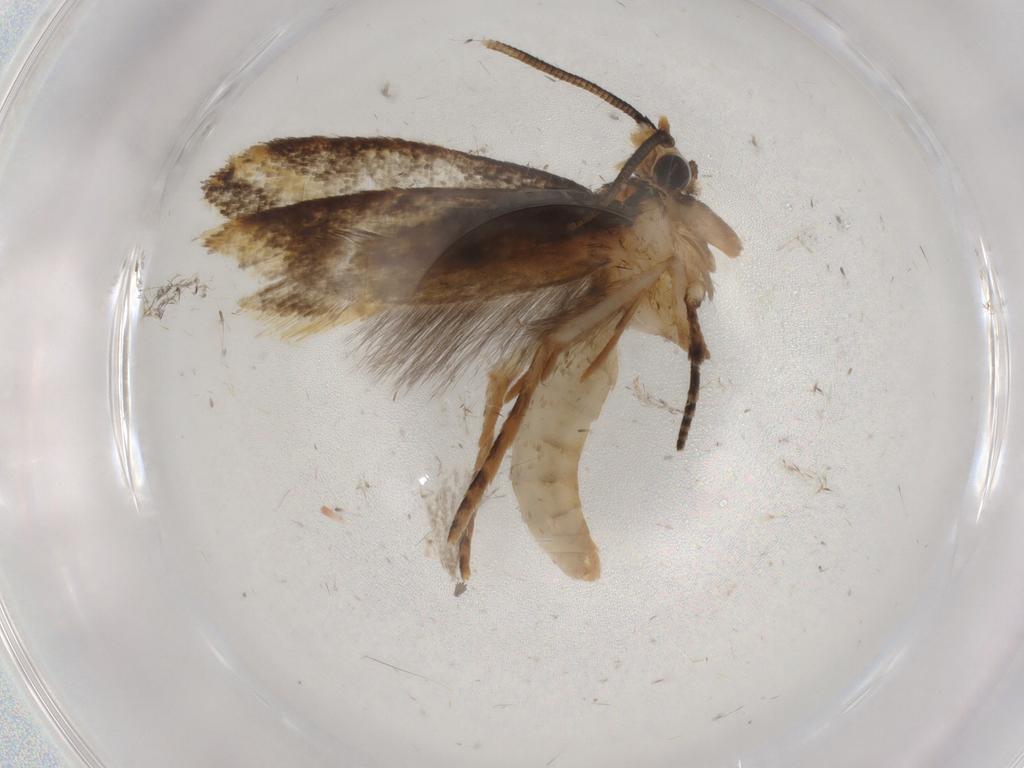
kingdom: Animalia
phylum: Arthropoda
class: Insecta
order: Lepidoptera
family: Tineidae
